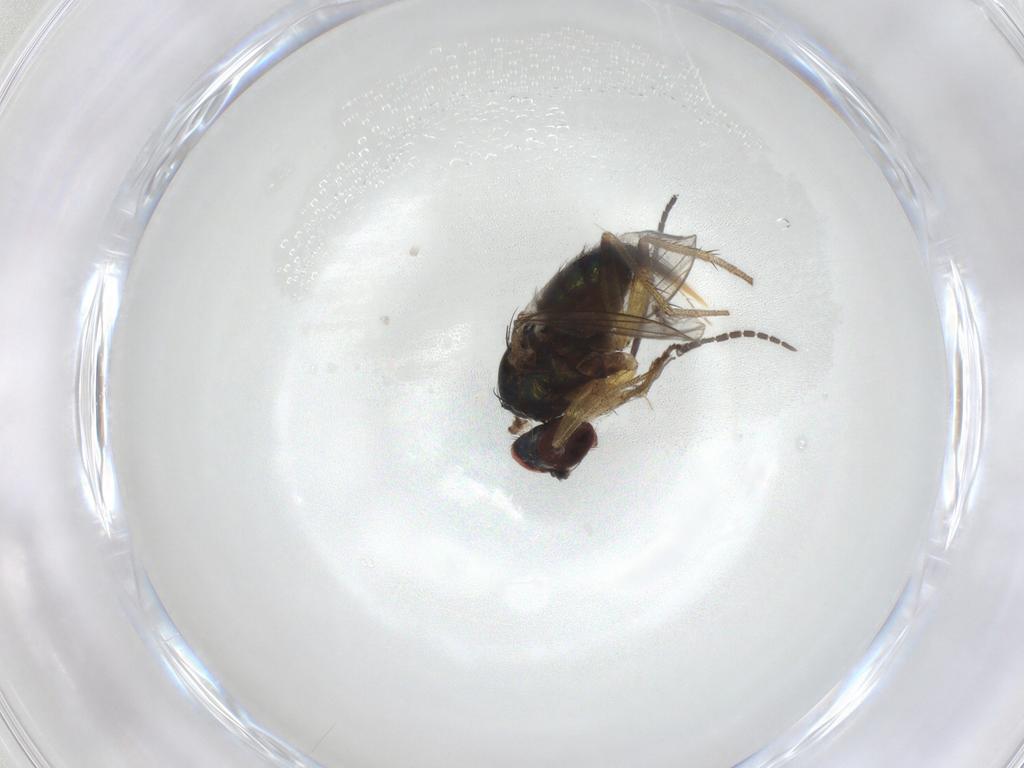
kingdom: Animalia
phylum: Arthropoda
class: Insecta
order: Diptera
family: Sciaridae
